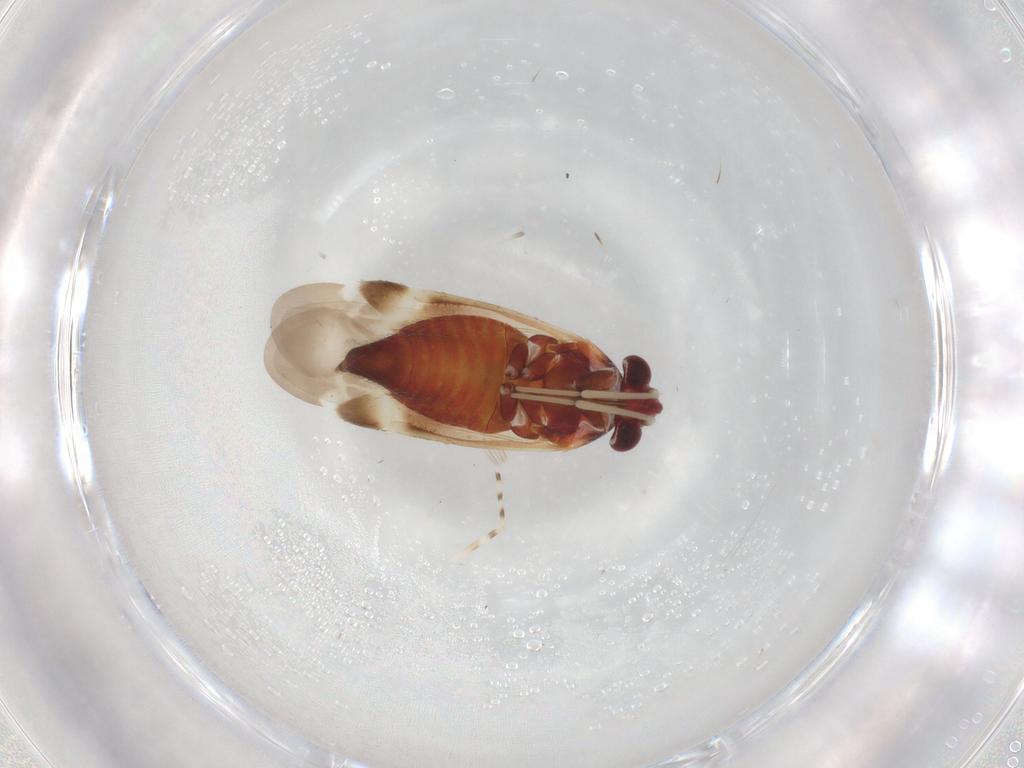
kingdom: Animalia
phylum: Arthropoda
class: Insecta
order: Hemiptera
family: Miridae
